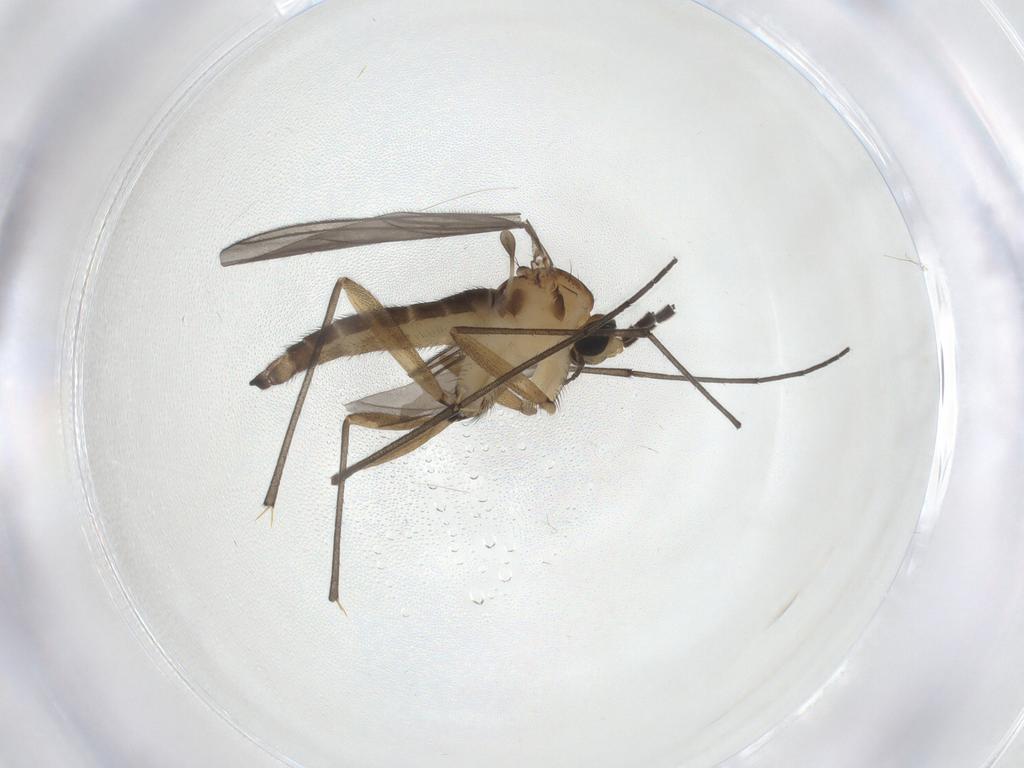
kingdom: Animalia
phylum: Arthropoda
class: Insecta
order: Diptera
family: Sciaridae
